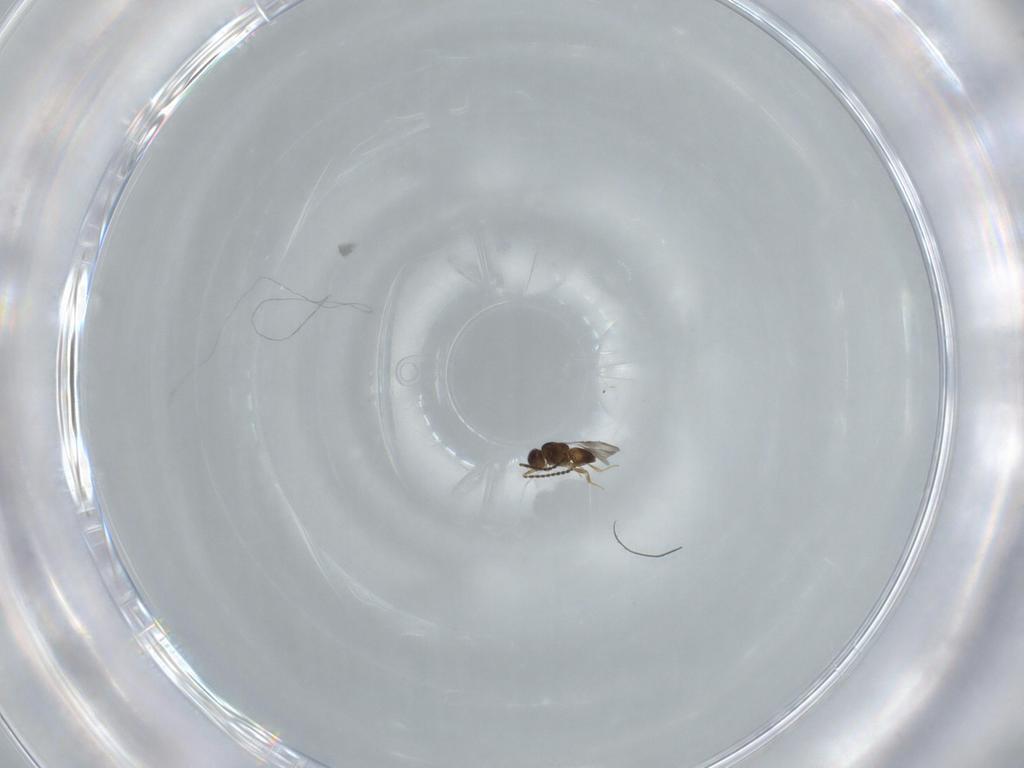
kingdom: Animalia
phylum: Arthropoda
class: Insecta
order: Hymenoptera
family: Ceraphronidae
